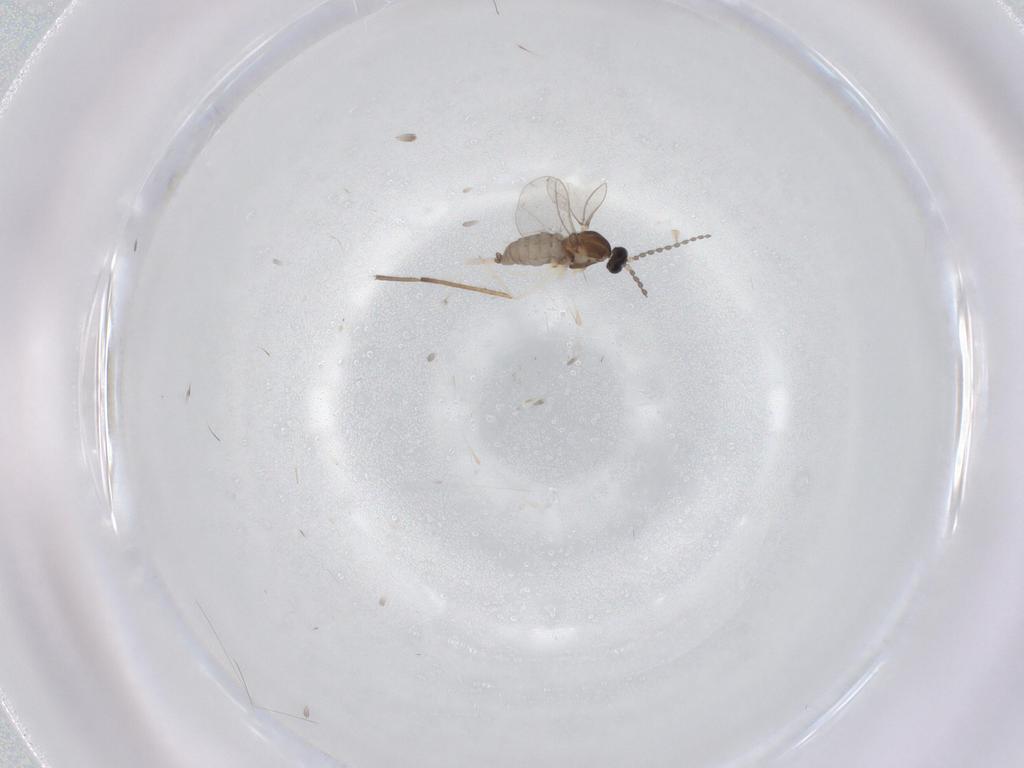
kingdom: Animalia
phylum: Arthropoda
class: Insecta
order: Diptera
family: Cecidomyiidae
